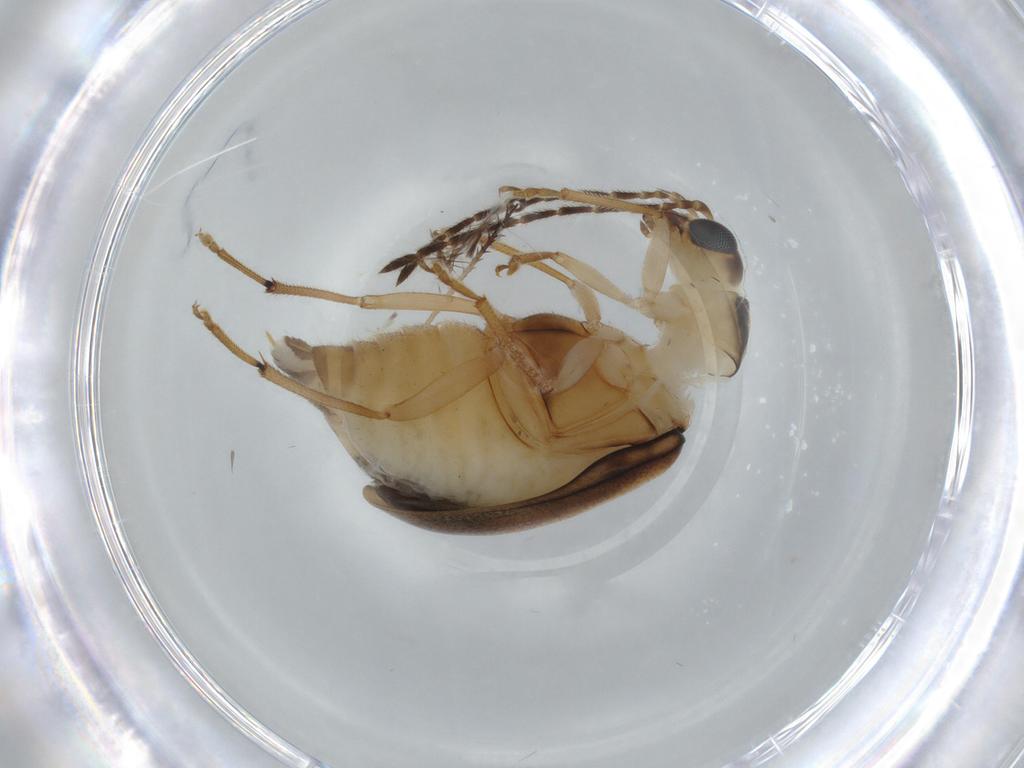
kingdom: Animalia
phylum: Arthropoda
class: Insecta
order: Coleoptera
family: Chrysomelidae
